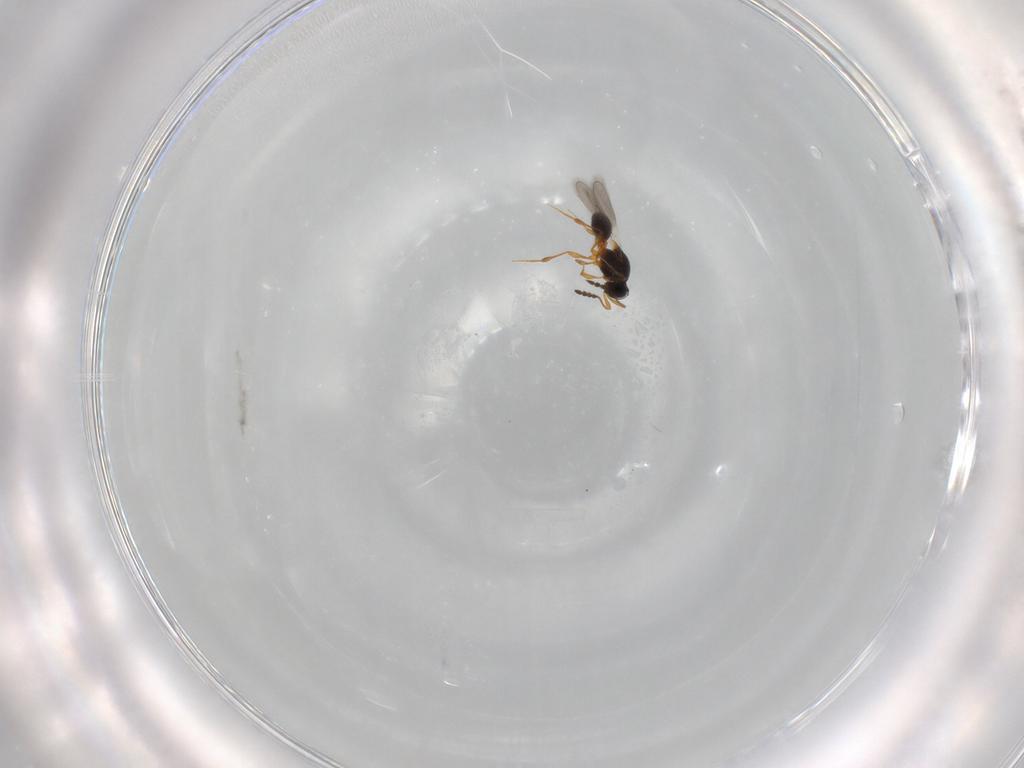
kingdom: Animalia
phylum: Arthropoda
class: Insecta
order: Hymenoptera
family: Platygastridae
